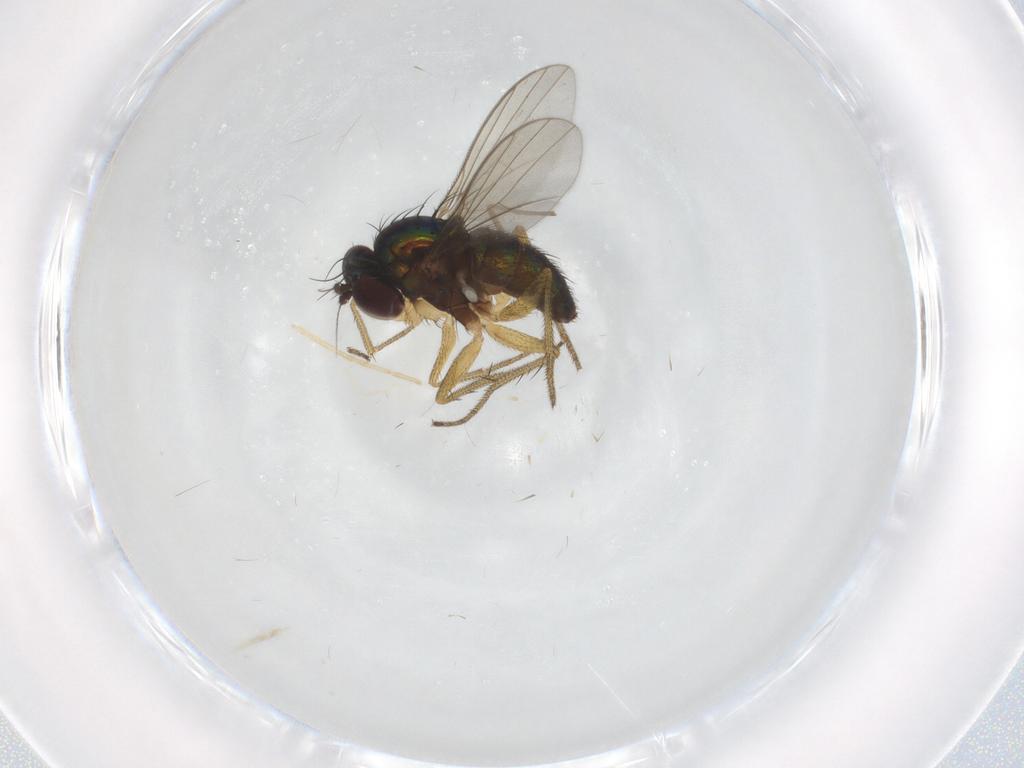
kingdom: Animalia
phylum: Arthropoda
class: Insecta
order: Diptera
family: Dolichopodidae
